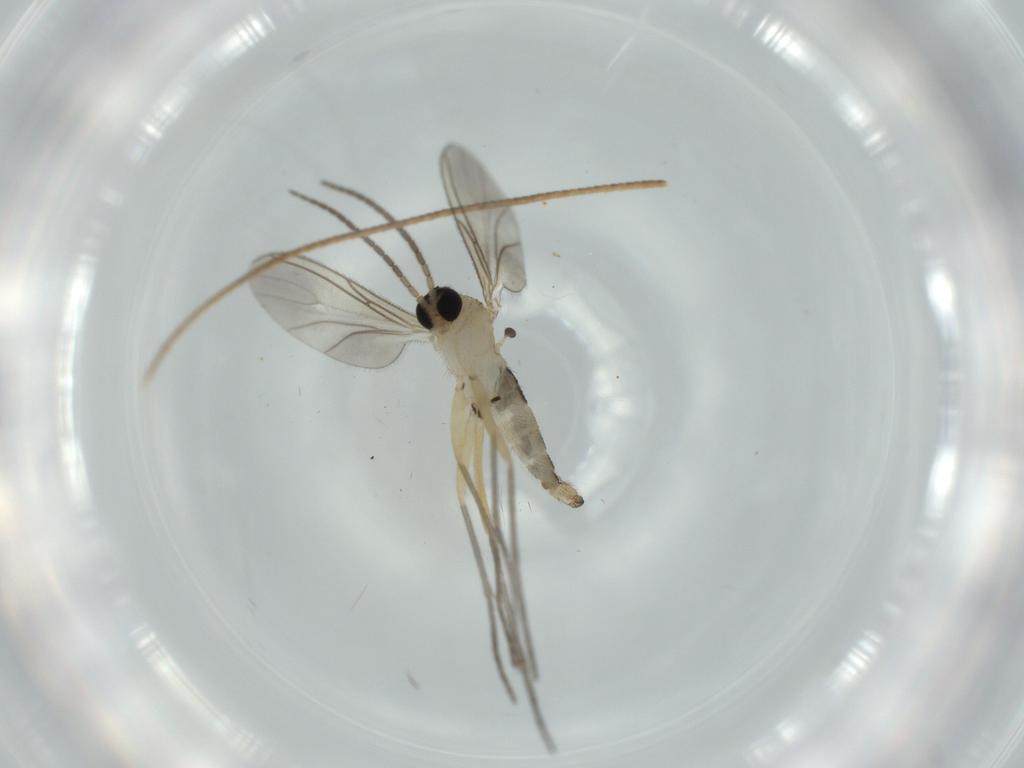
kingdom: Animalia
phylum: Arthropoda
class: Insecta
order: Diptera
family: Sciaridae
